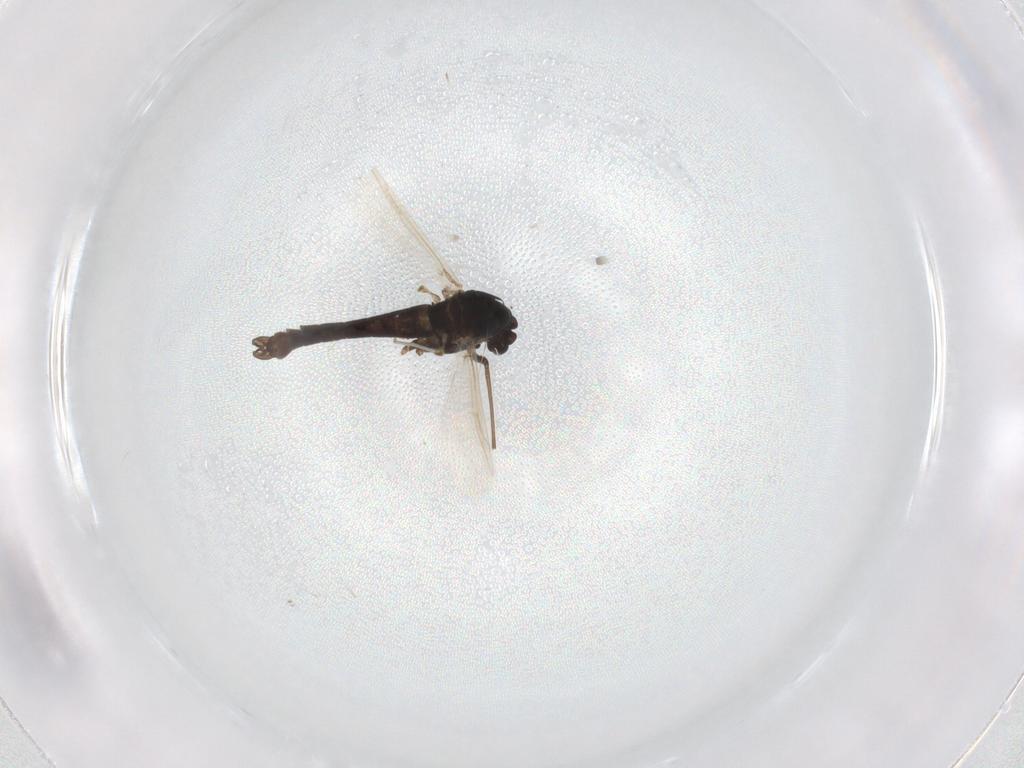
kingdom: Animalia
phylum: Arthropoda
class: Insecta
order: Diptera
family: Chironomidae
